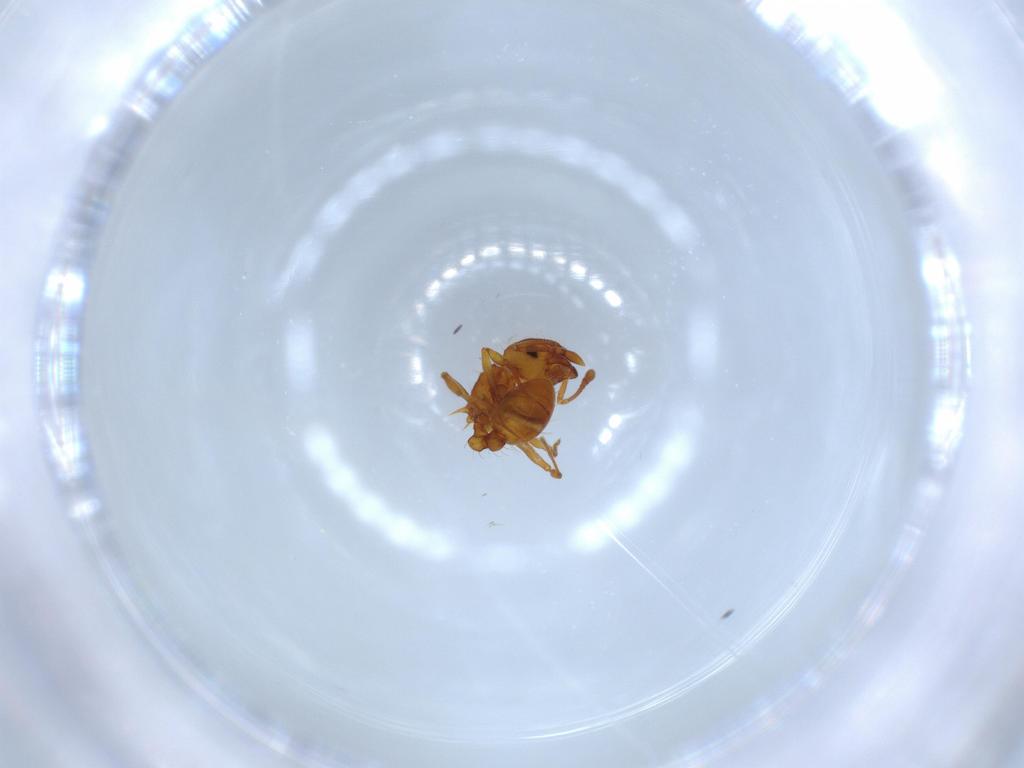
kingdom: Animalia
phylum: Arthropoda
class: Insecta
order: Hymenoptera
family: Formicidae
